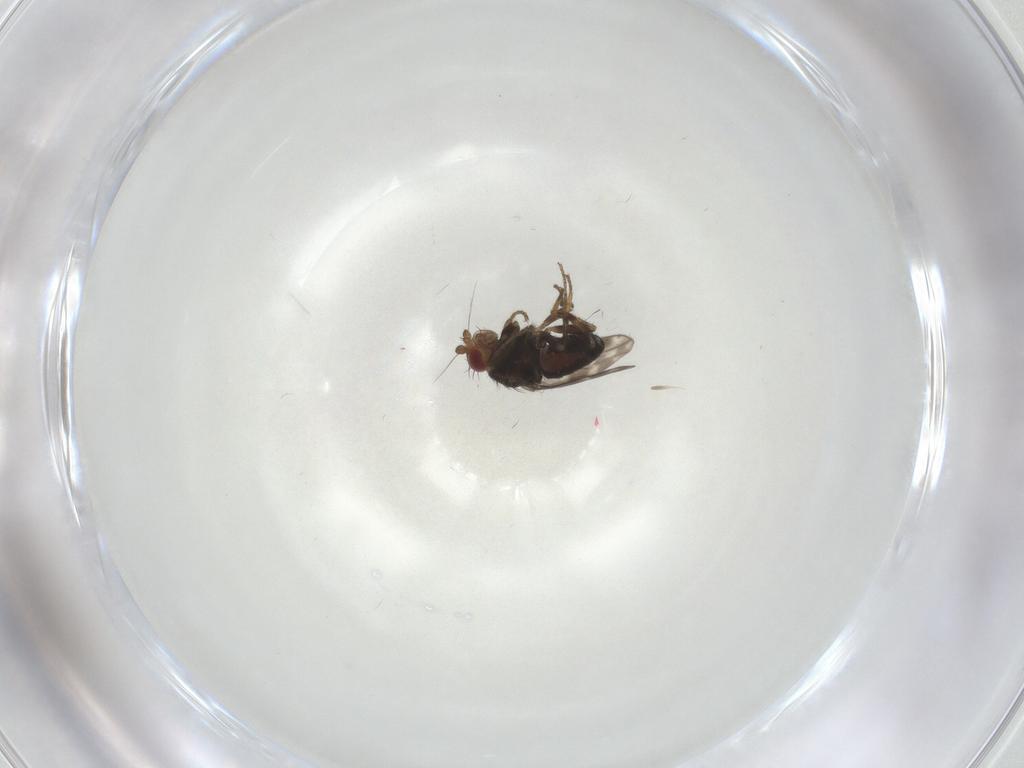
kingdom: Animalia
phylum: Arthropoda
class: Insecta
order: Diptera
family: Sphaeroceridae
